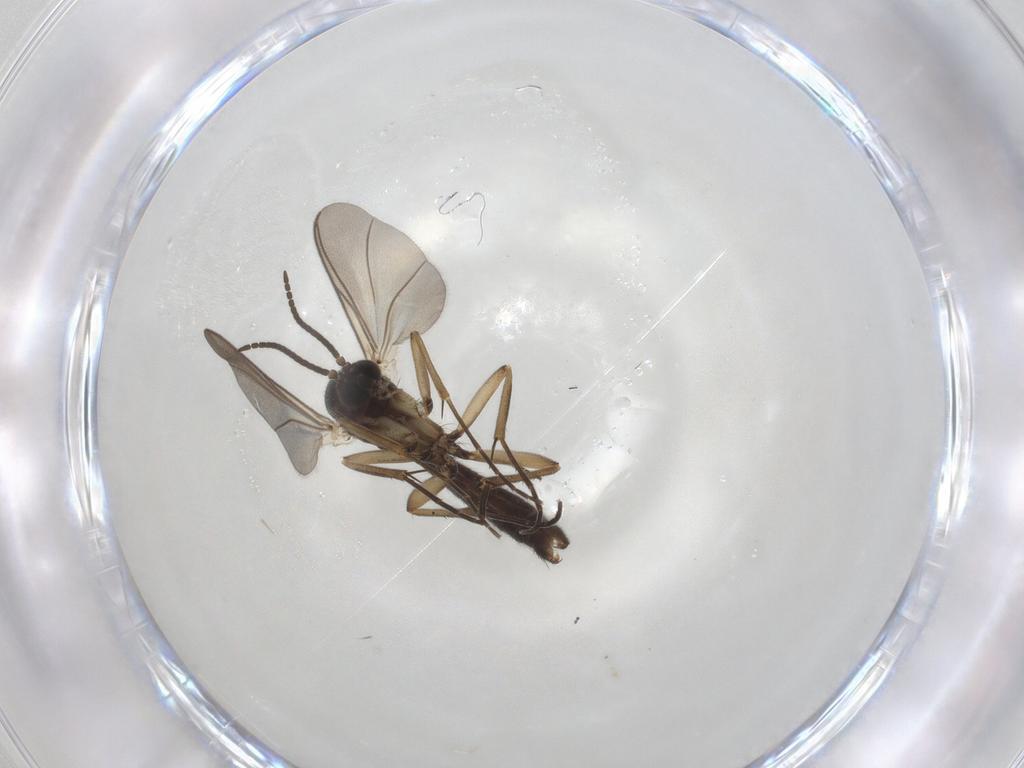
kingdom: Animalia
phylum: Arthropoda
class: Insecta
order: Diptera
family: Mycetophilidae
